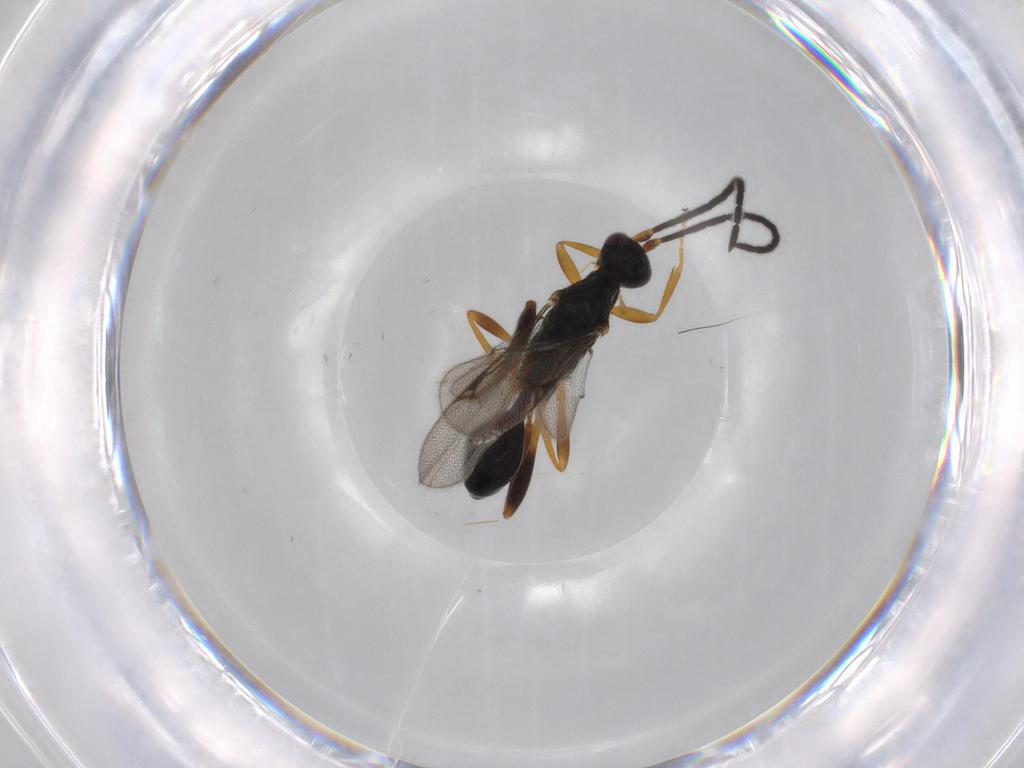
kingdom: Animalia
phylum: Arthropoda
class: Insecta
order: Hymenoptera
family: Proctotrupidae
